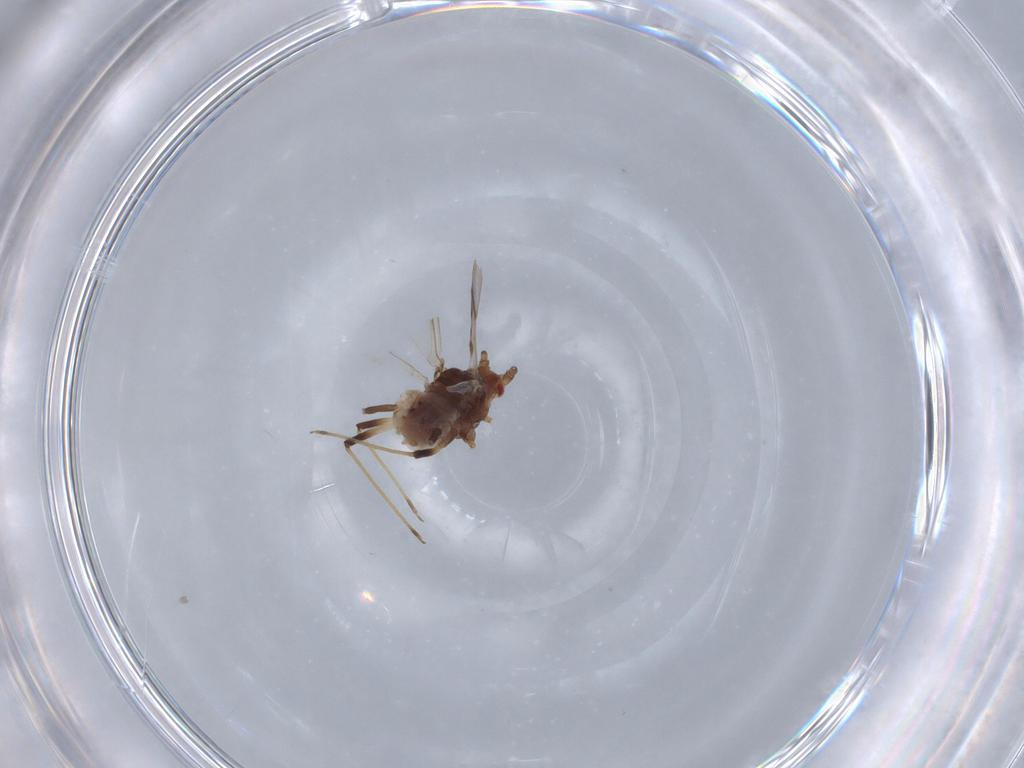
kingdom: Animalia
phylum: Arthropoda
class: Insecta
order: Hemiptera
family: Aphididae
